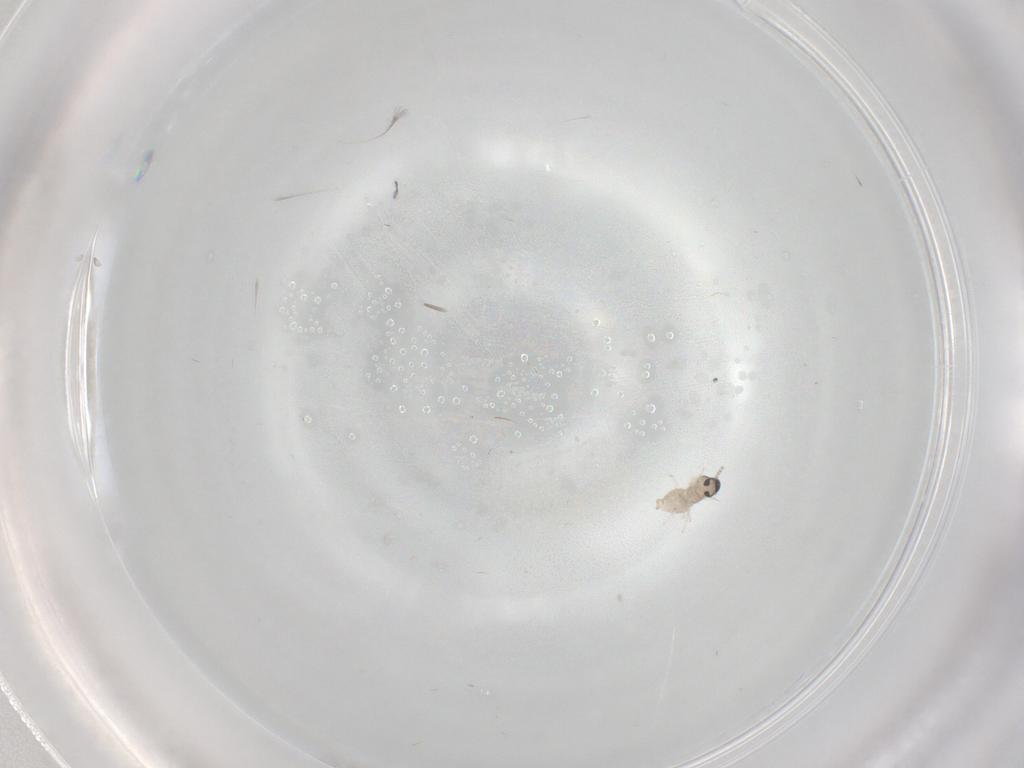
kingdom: Animalia
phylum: Arthropoda
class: Insecta
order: Diptera
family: Cecidomyiidae
